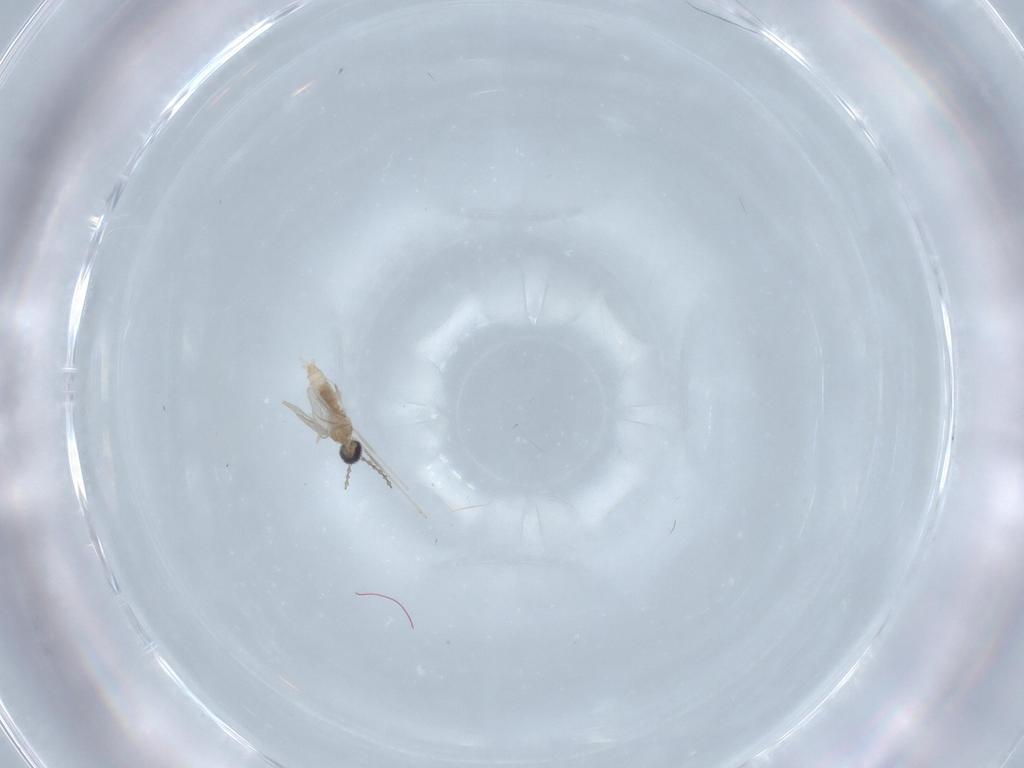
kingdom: Animalia
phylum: Arthropoda
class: Insecta
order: Diptera
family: Cecidomyiidae
